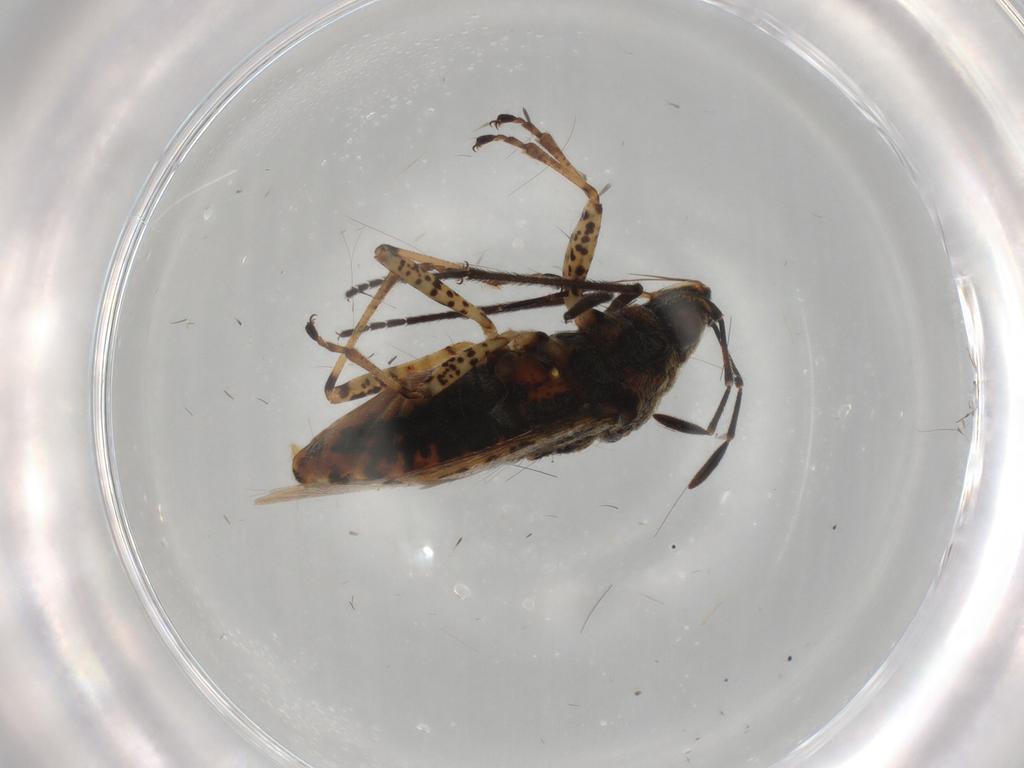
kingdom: Animalia
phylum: Arthropoda
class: Insecta
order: Hemiptera
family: Lygaeidae
